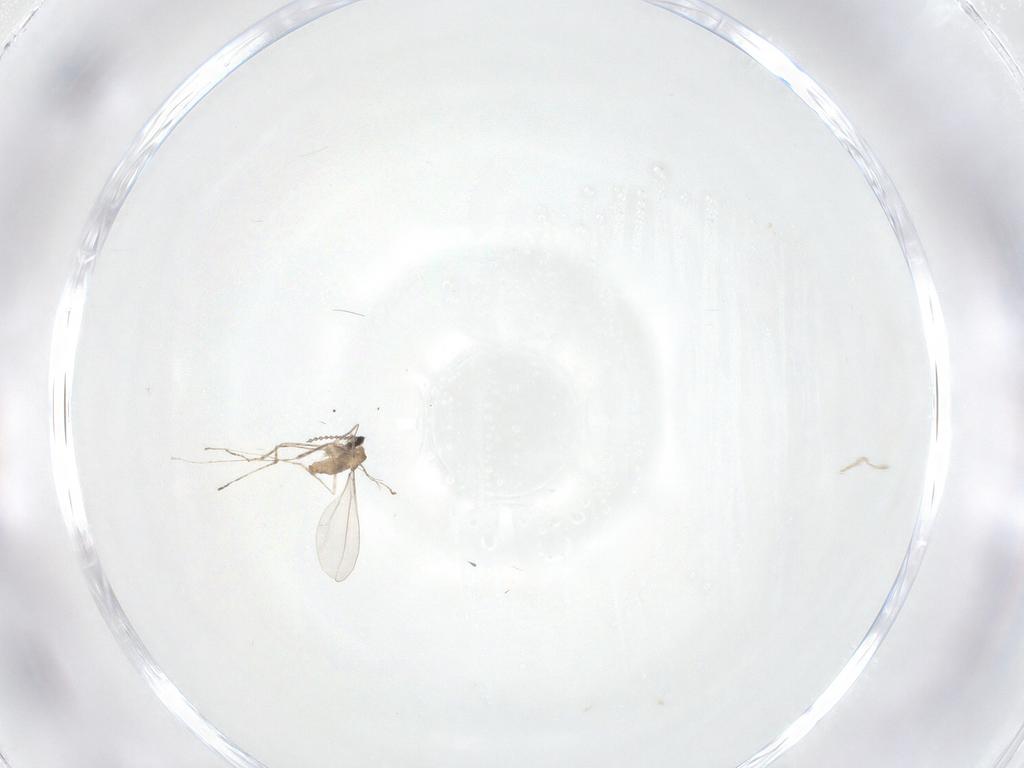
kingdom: Animalia
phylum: Arthropoda
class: Insecta
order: Diptera
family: Cecidomyiidae
